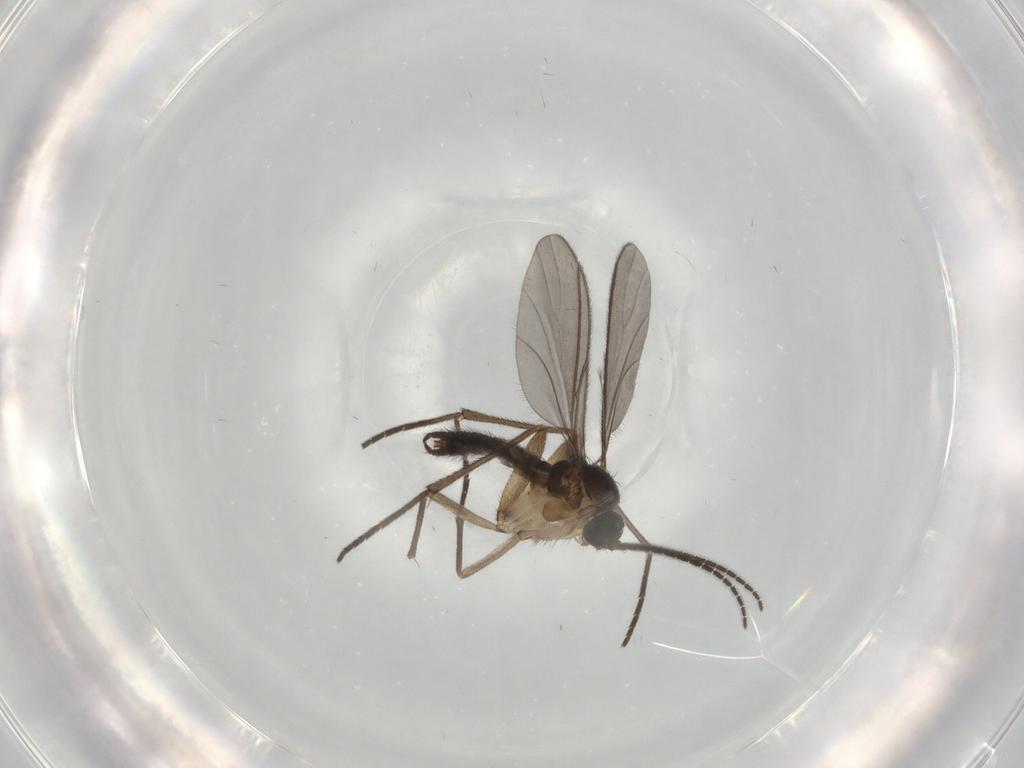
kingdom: Animalia
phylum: Arthropoda
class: Insecta
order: Diptera
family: Sciaridae
